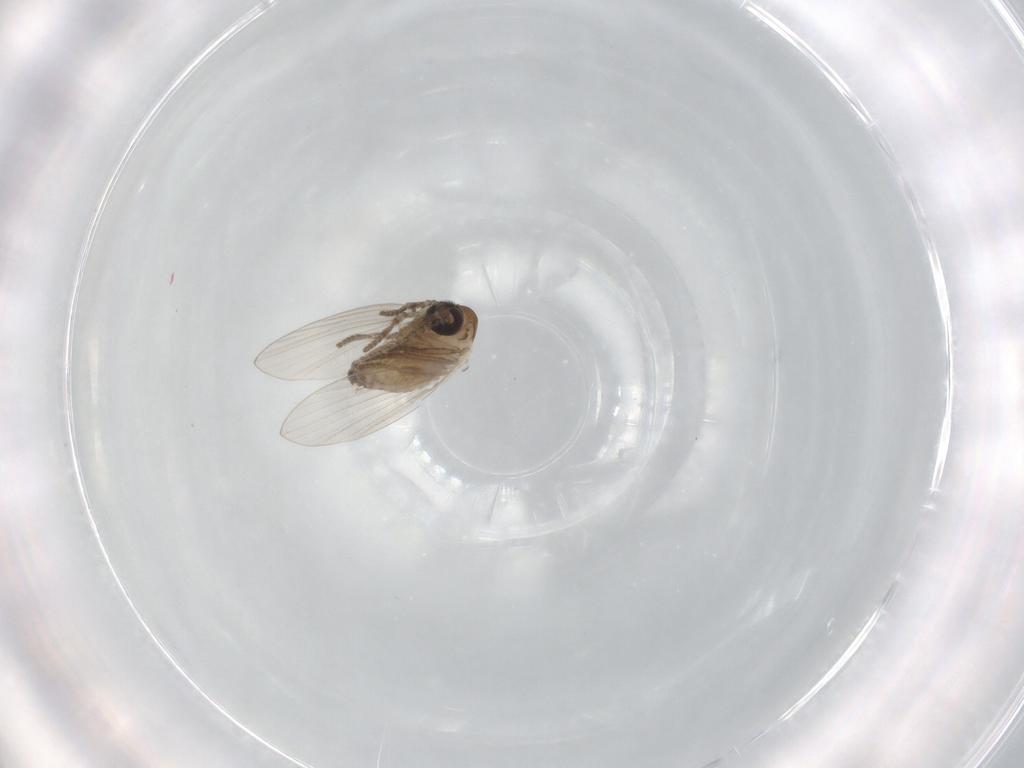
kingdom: Animalia
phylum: Arthropoda
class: Insecta
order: Diptera
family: Psychodidae
